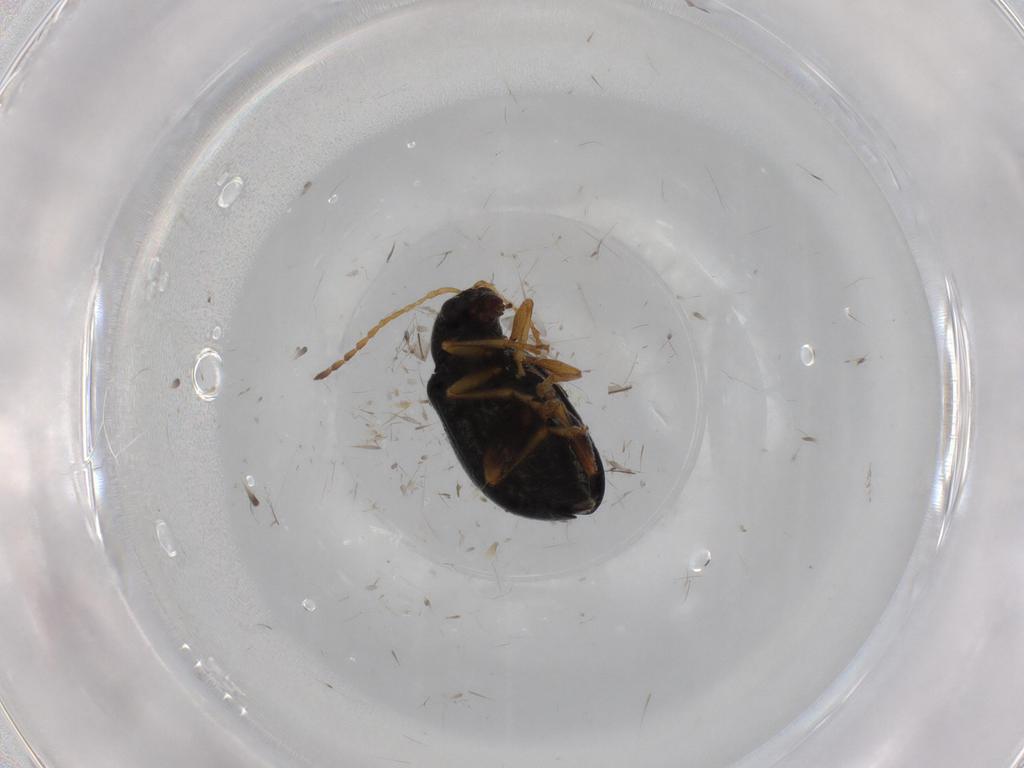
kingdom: Animalia
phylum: Arthropoda
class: Insecta
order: Coleoptera
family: Chrysomelidae
